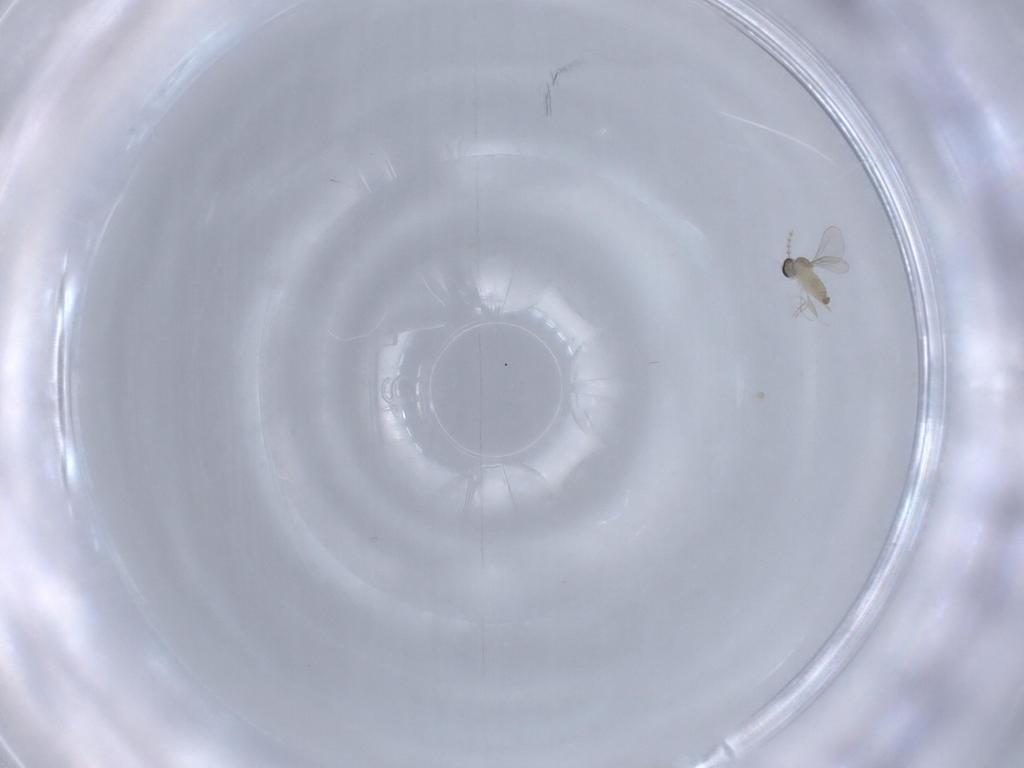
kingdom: Animalia
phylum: Arthropoda
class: Insecta
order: Diptera
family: Cecidomyiidae
